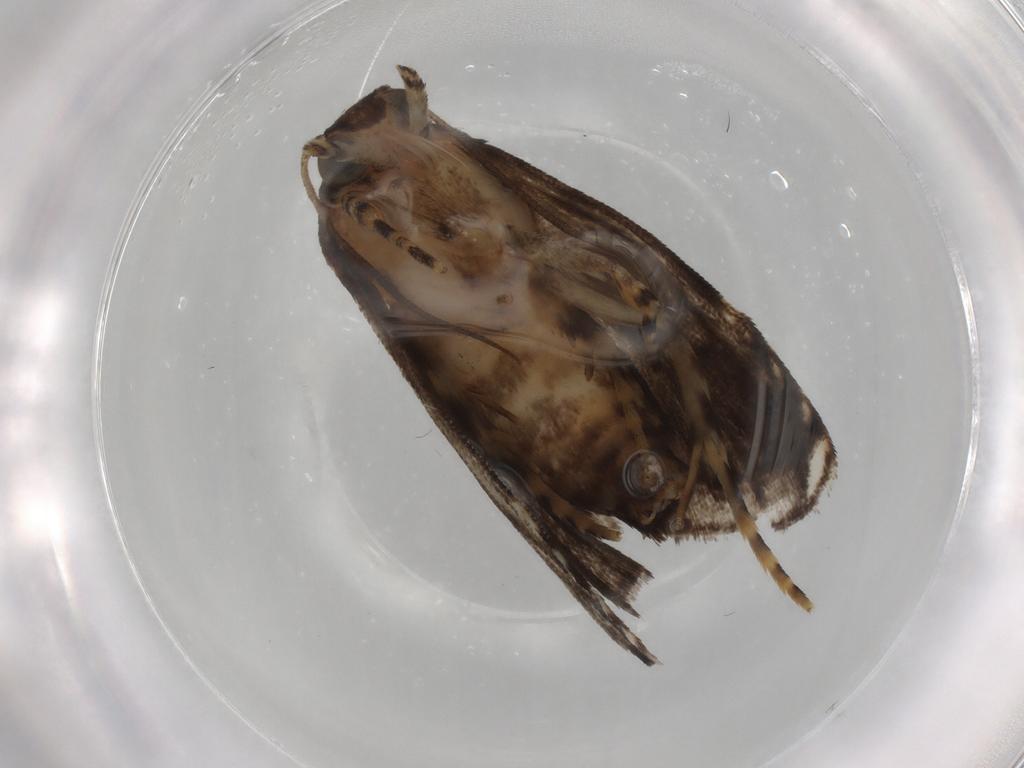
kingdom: Animalia
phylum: Arthropoda
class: Insecta
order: Lepidoptera
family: Immidae
